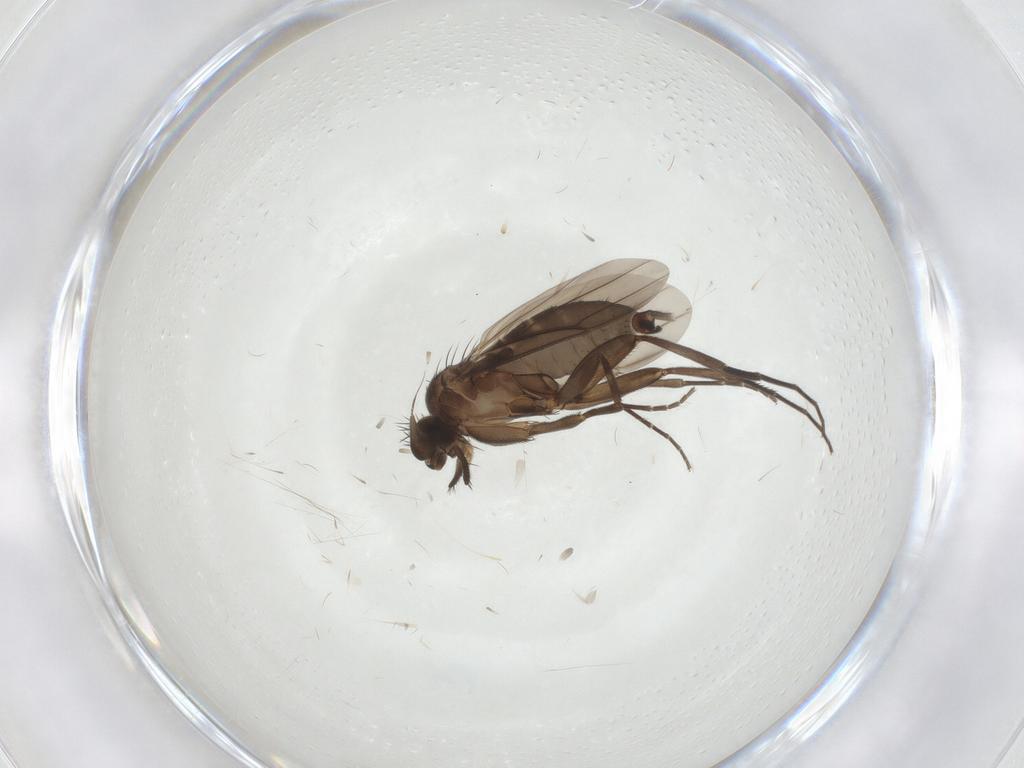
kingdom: Animalia
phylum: Arthropoda
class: Insecta
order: Diptera
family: Phoridae
